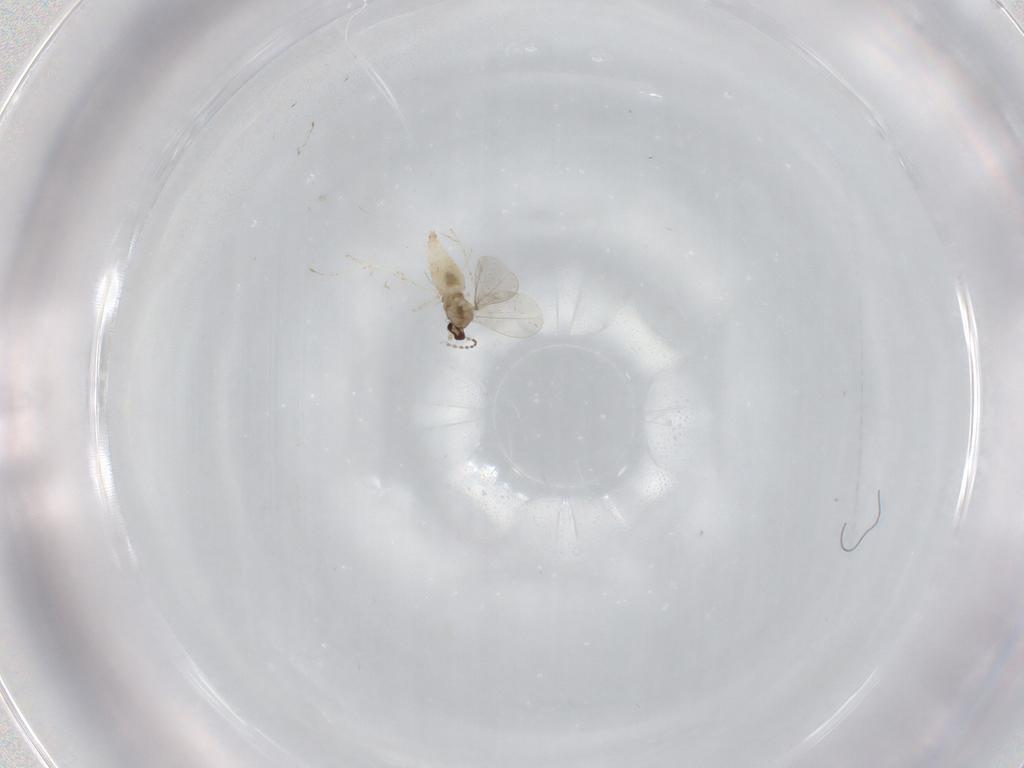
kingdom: Animalia
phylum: Arthropoda
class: Insecta
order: Diptera
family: Cecidomyiidae
